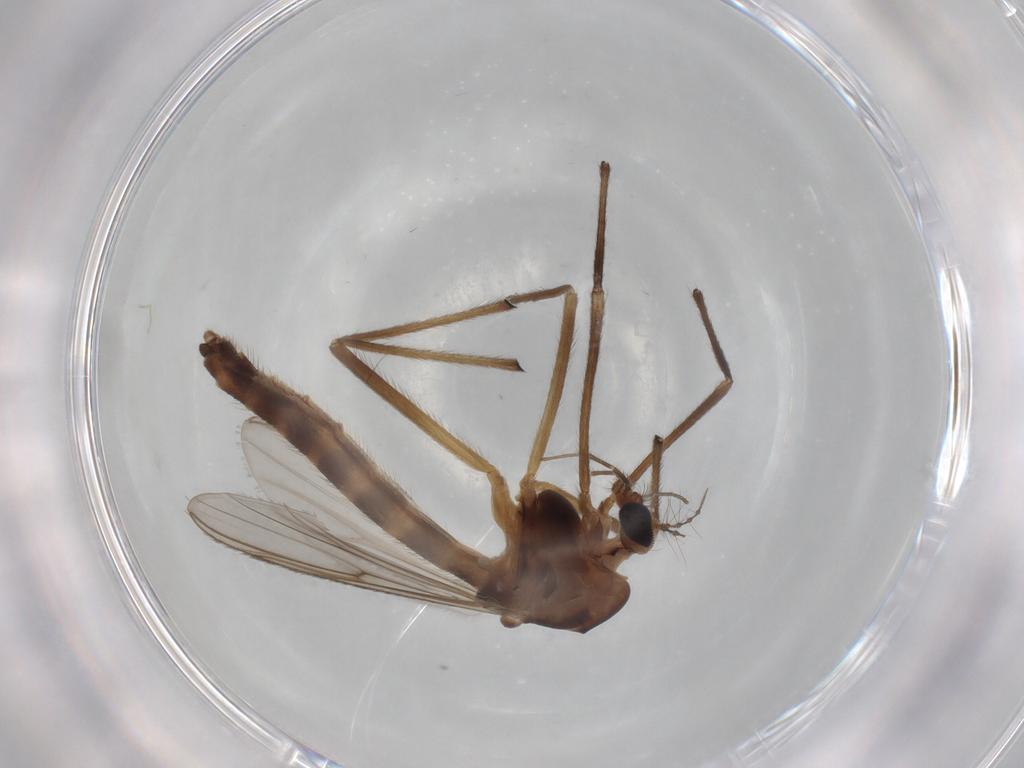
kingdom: Animalia
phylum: Arthropoda
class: Insecta
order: Diptera
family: Chironomidae
